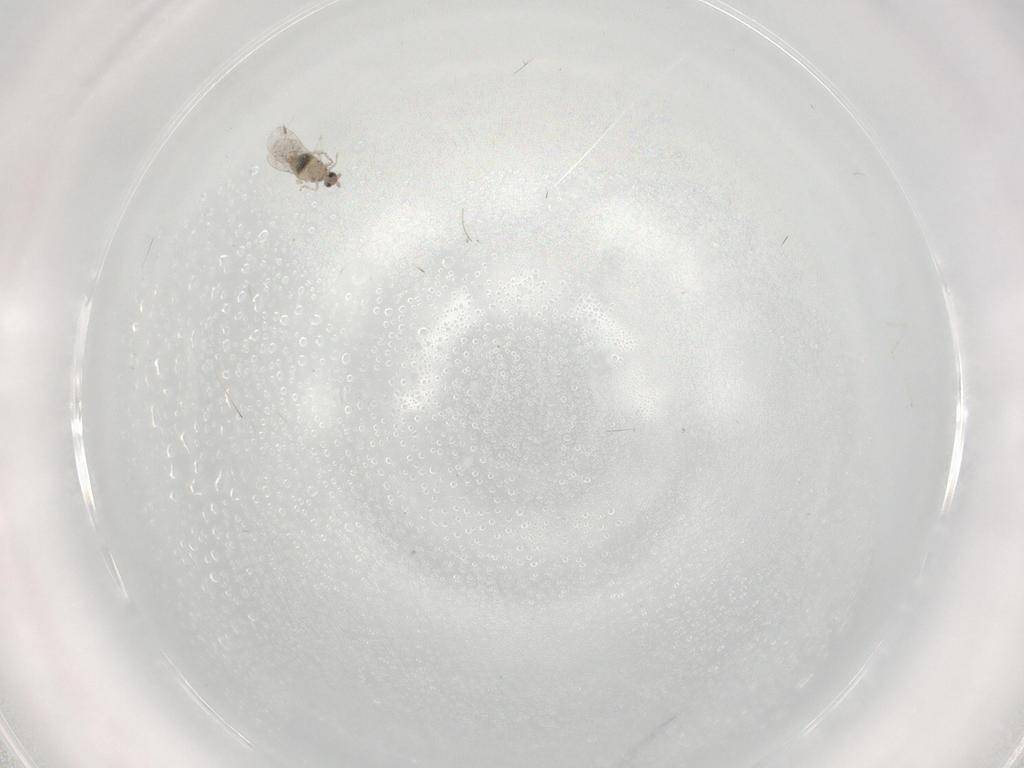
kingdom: Animalia
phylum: Arthropoda
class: Insecta
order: Diptera
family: Cecidomyiidae
